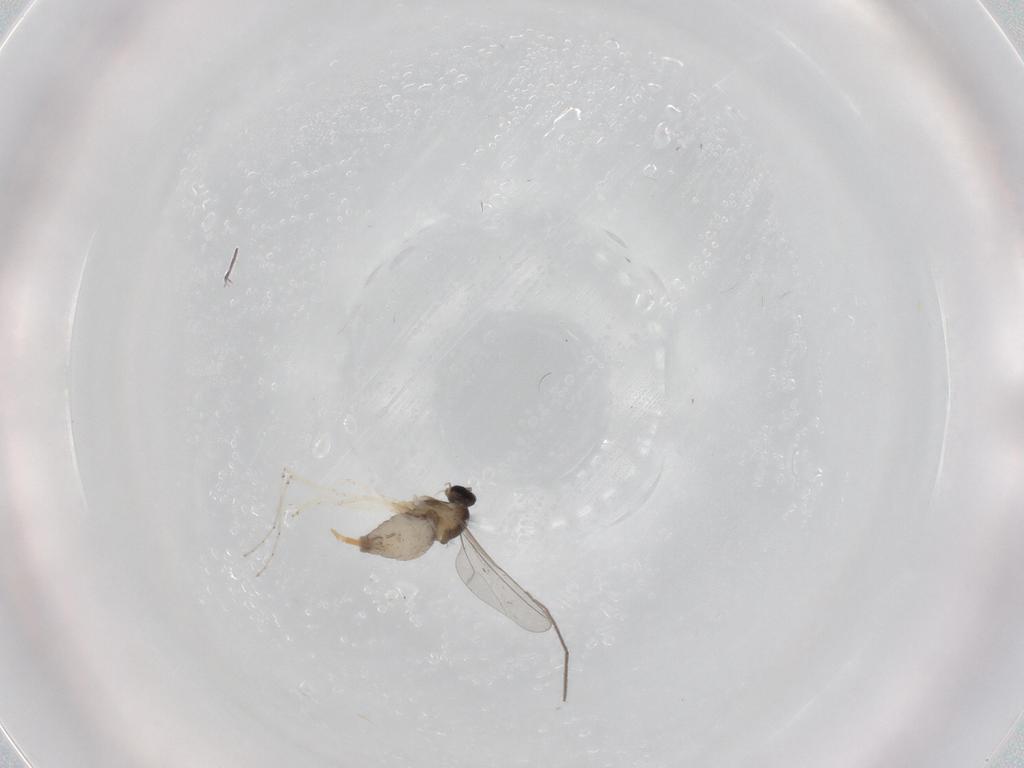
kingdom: Animalia
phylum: Arthropoda
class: Insecta
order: Diptera
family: Cecidomyiidae
